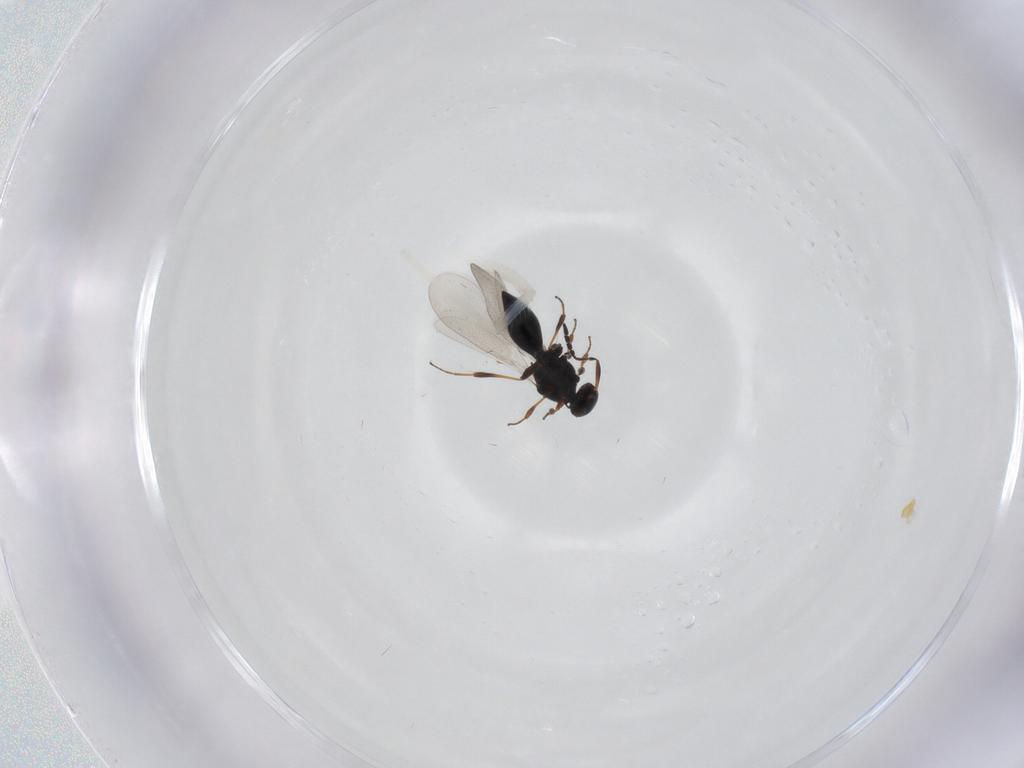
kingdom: Animalia
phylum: Arthropoda
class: Insecta
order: Hymenoptera
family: Platygastridae
